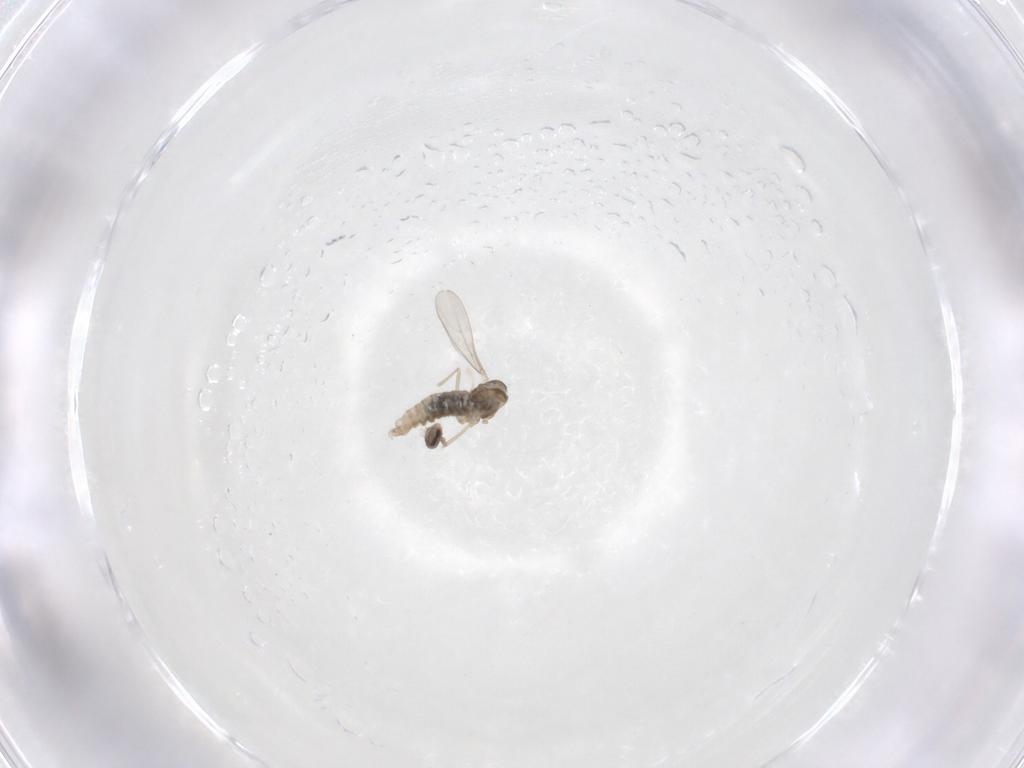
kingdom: Animalia
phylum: Arthropoda
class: Insecta
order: Diptera
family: Cecidomyiidae
